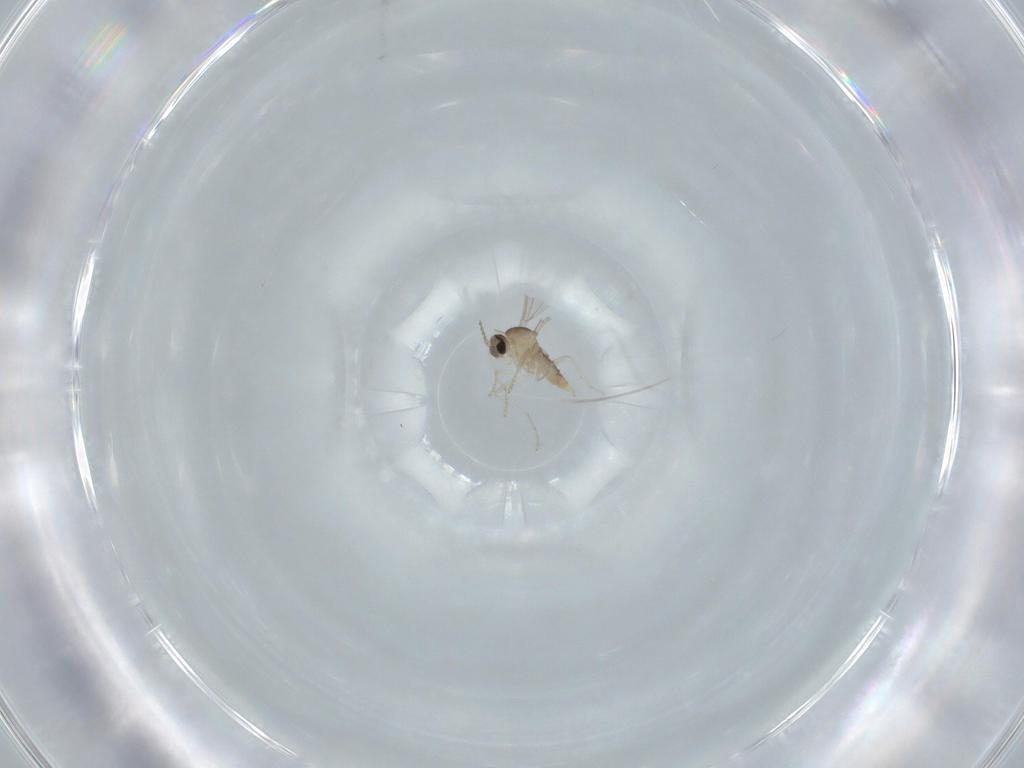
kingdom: Animalia
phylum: Arthropoda
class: Insecta
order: Diptera
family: Cecidomyiidae
